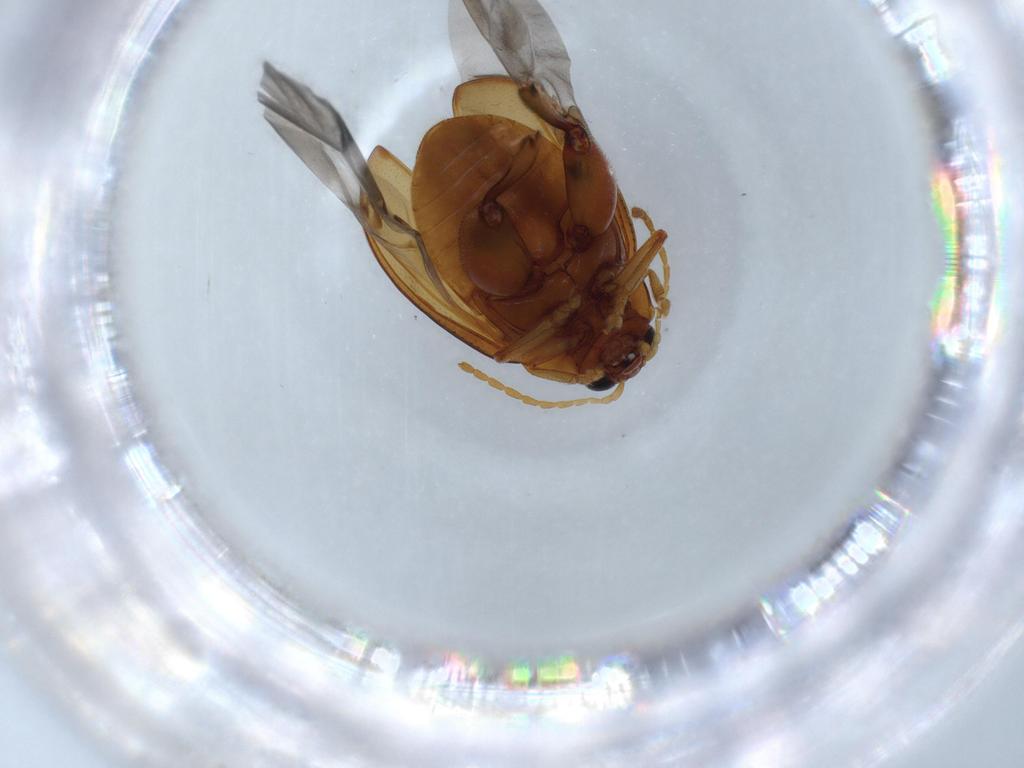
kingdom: Animalia
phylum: Arthropoda
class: Insecta
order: Coleoptera
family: Chrysomelidae
